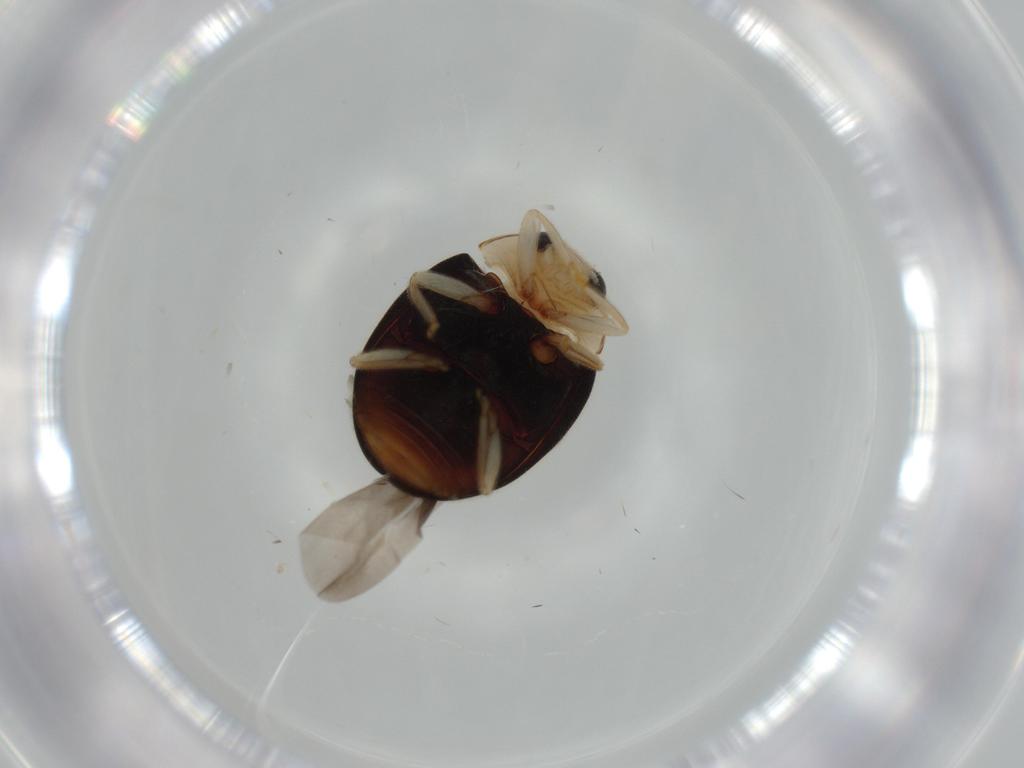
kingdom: Animalia
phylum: Arthropoda
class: Insecta
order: Coleoptera
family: Coccinellidae
